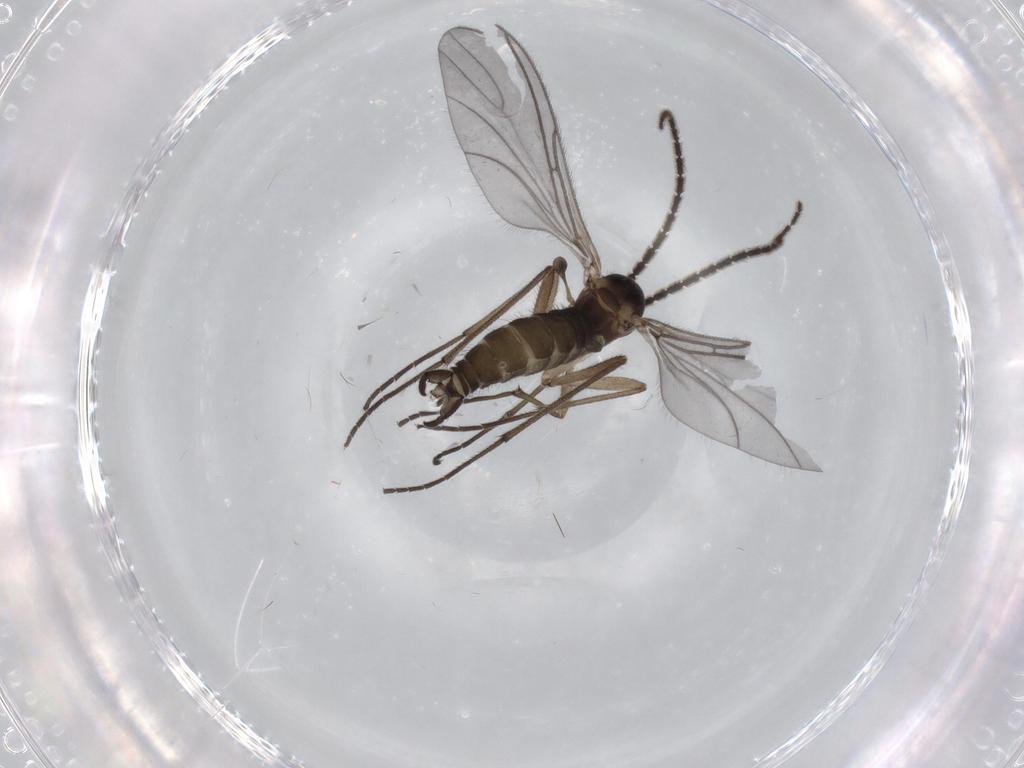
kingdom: Animalia
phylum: Arthropoda
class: Insecta
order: Diptera
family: Sciaridae
